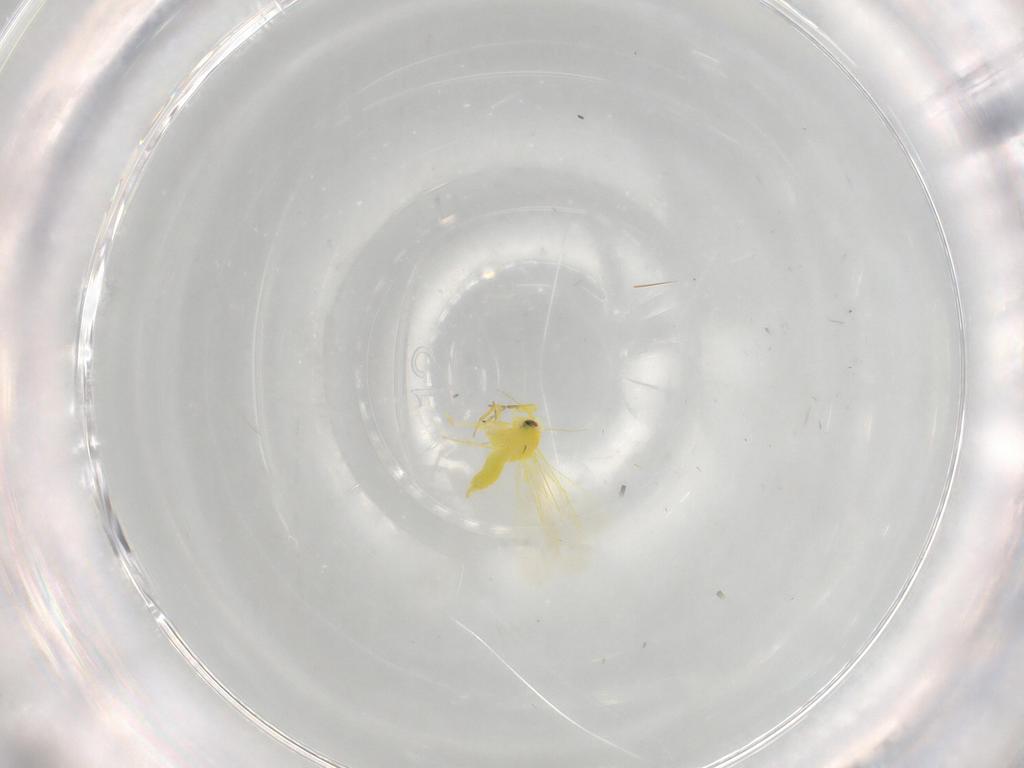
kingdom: Animalia
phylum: Arthropoda
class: Insecta
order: Hemiptera
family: Aleyrodidae
